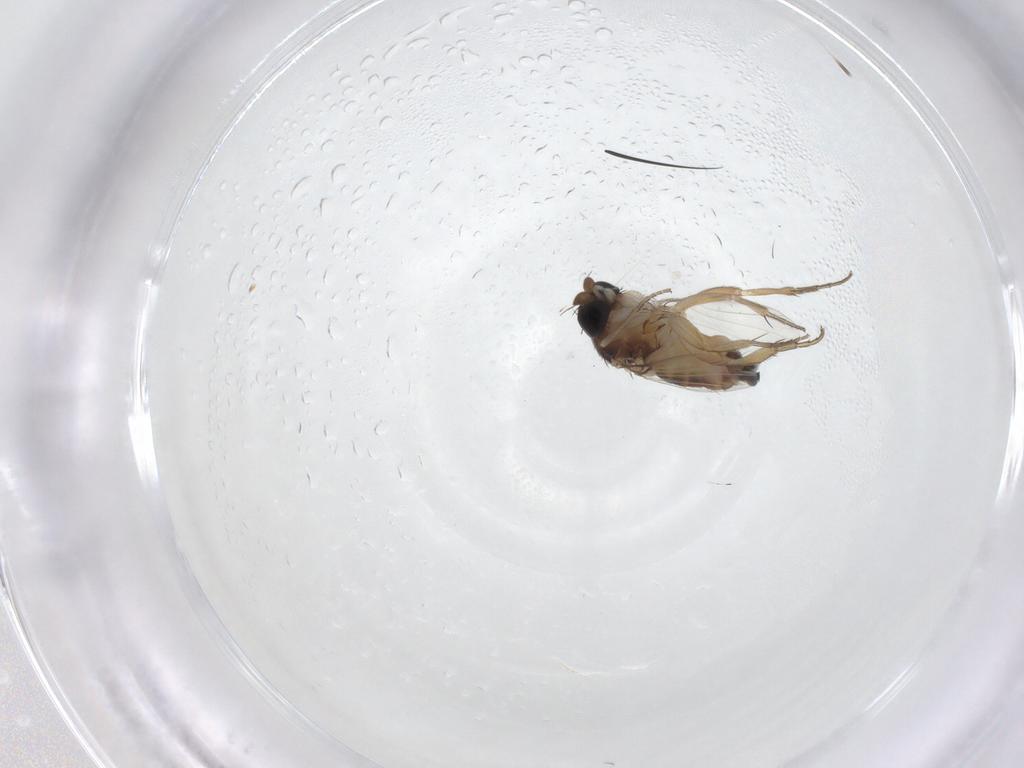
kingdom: Animalia
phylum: Arthropoda
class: Insecta
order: Diptera
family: Phoridae
